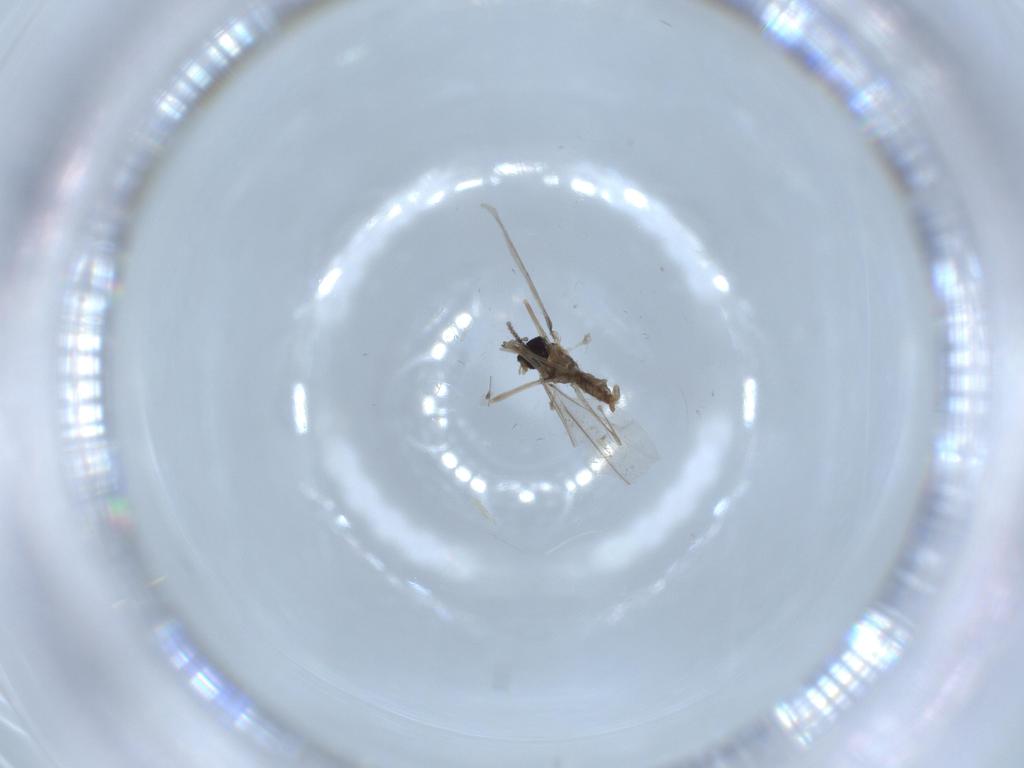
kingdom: Animalia
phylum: Arthropoda
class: Insecta
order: Diptera
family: Cecidomyiidae
